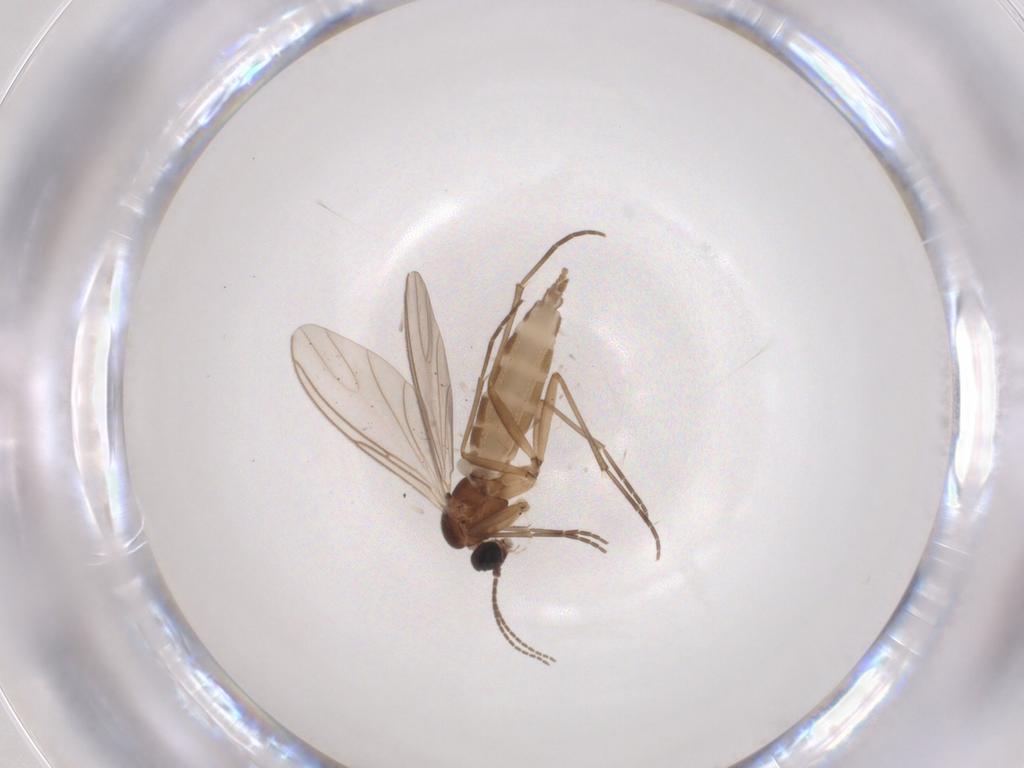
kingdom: Animalia
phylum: Arthropoda
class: Insecta
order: Diptera
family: Sciaridae
